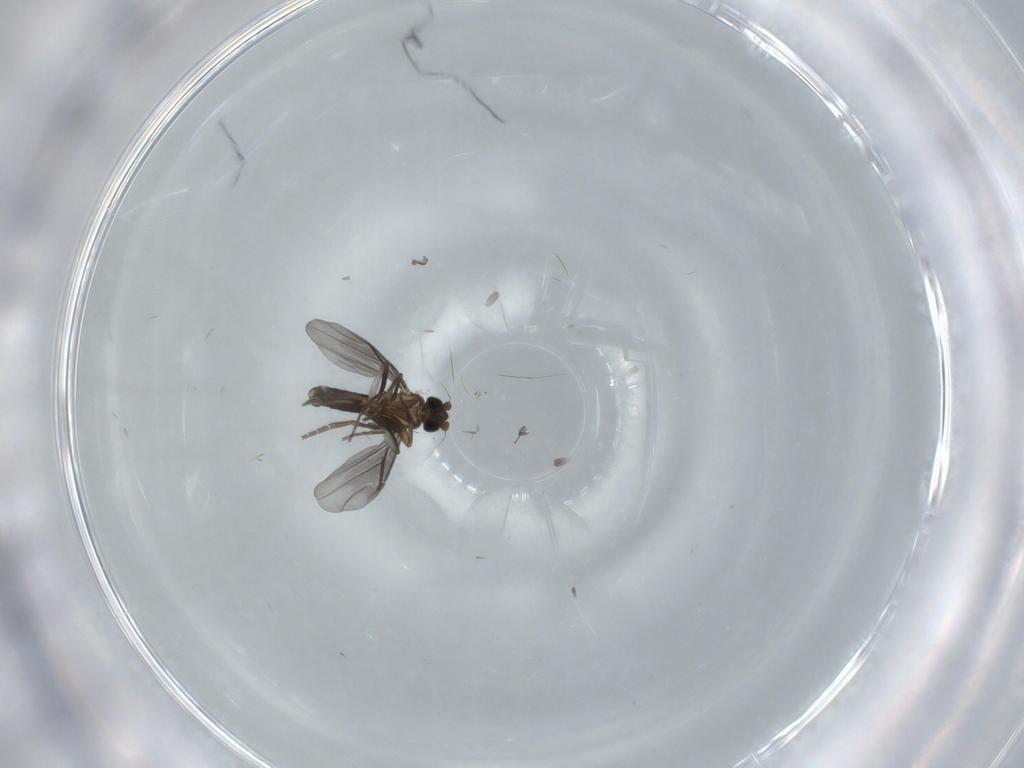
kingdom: Animalia
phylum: Arthropoda
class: Insecta
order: Diptera
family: Phoridae
